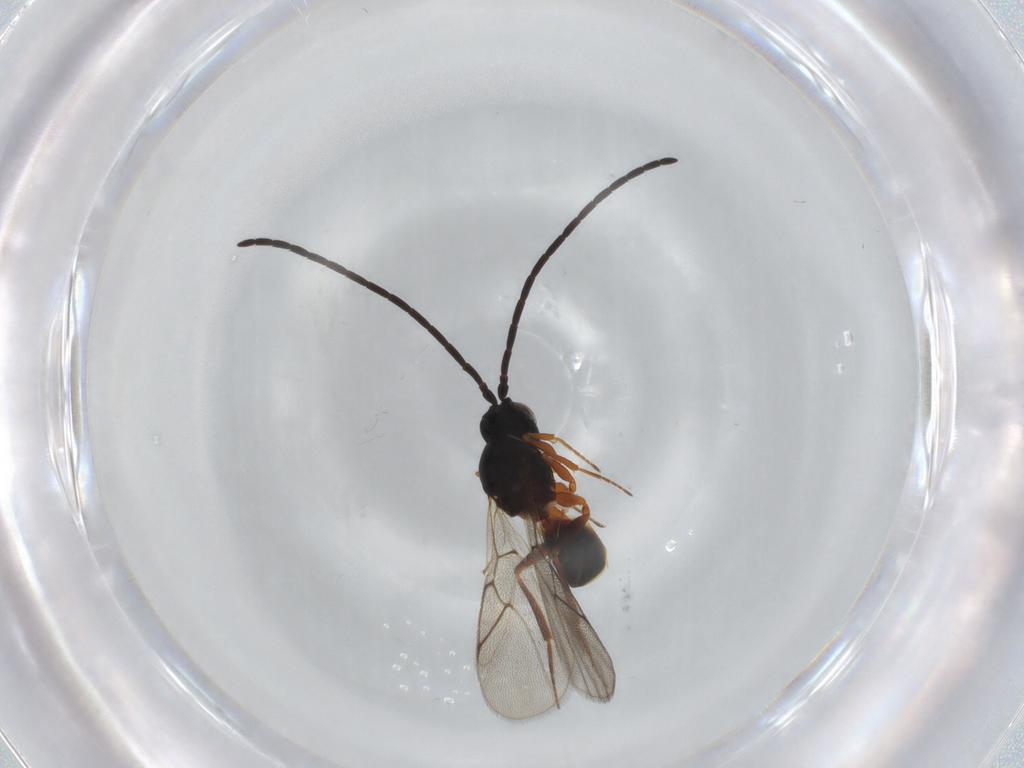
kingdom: Animalia
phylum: Arthropoda
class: Insecta
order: Hymenoptera
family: Figitidae
